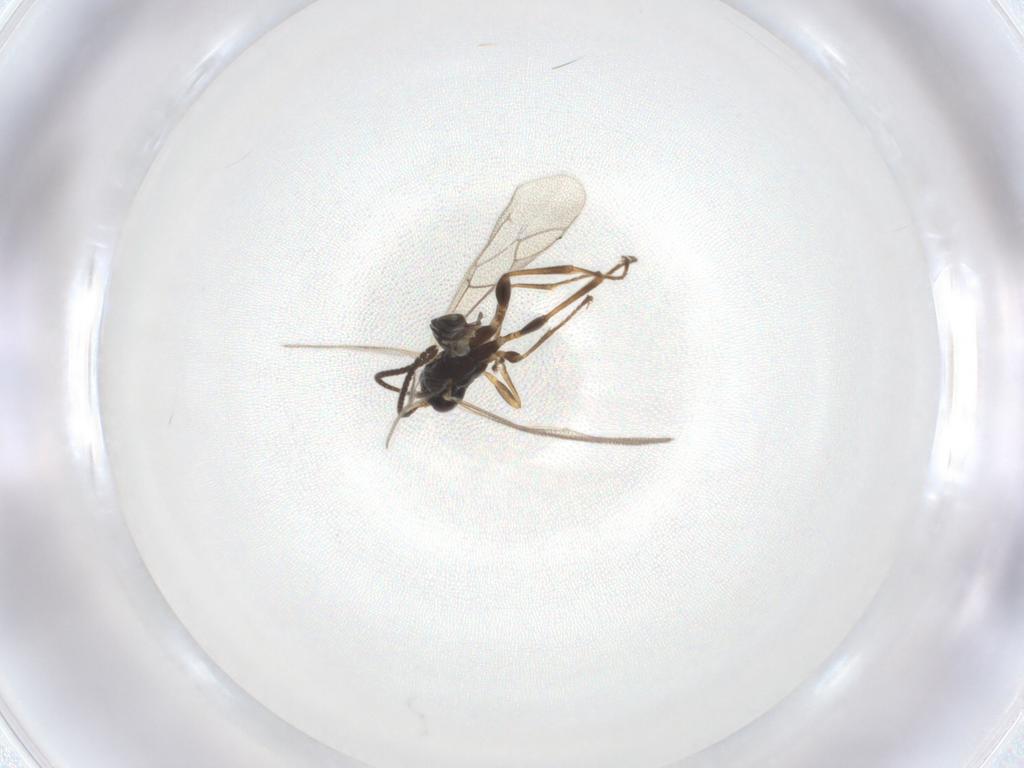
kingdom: Animalia
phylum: Arthropoda
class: Insecta
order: Hymenoptera
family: Ichneumonidae
